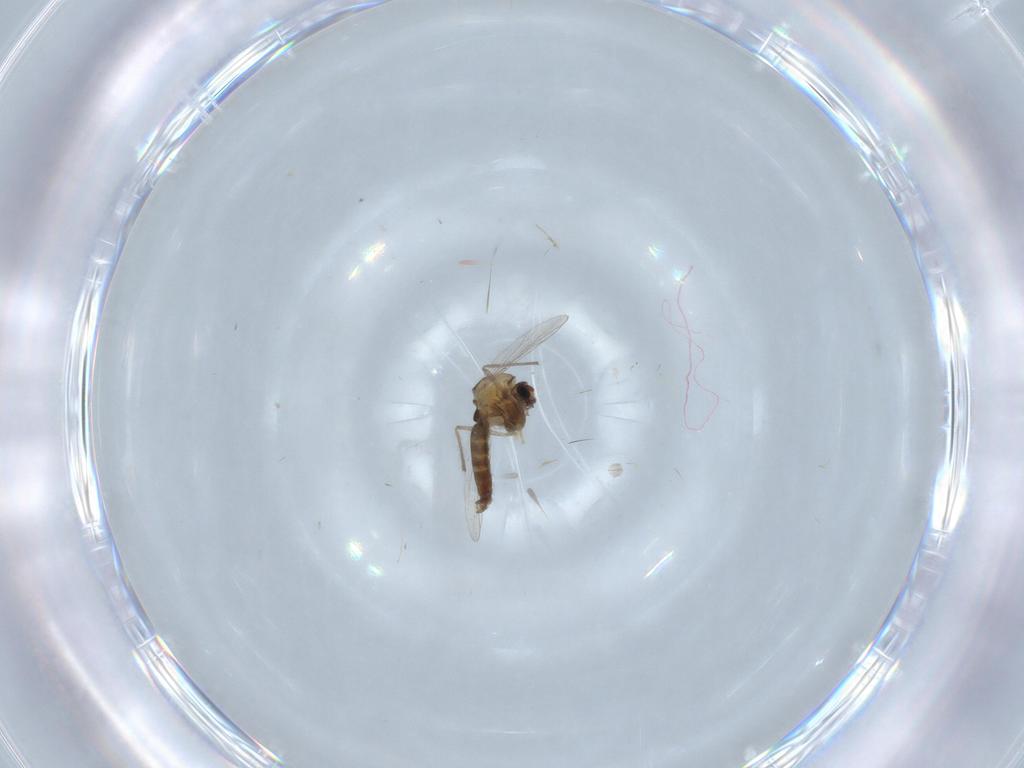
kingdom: Animalia
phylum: Arthropoda
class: Insecta
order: Diptera
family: Chironomidae
